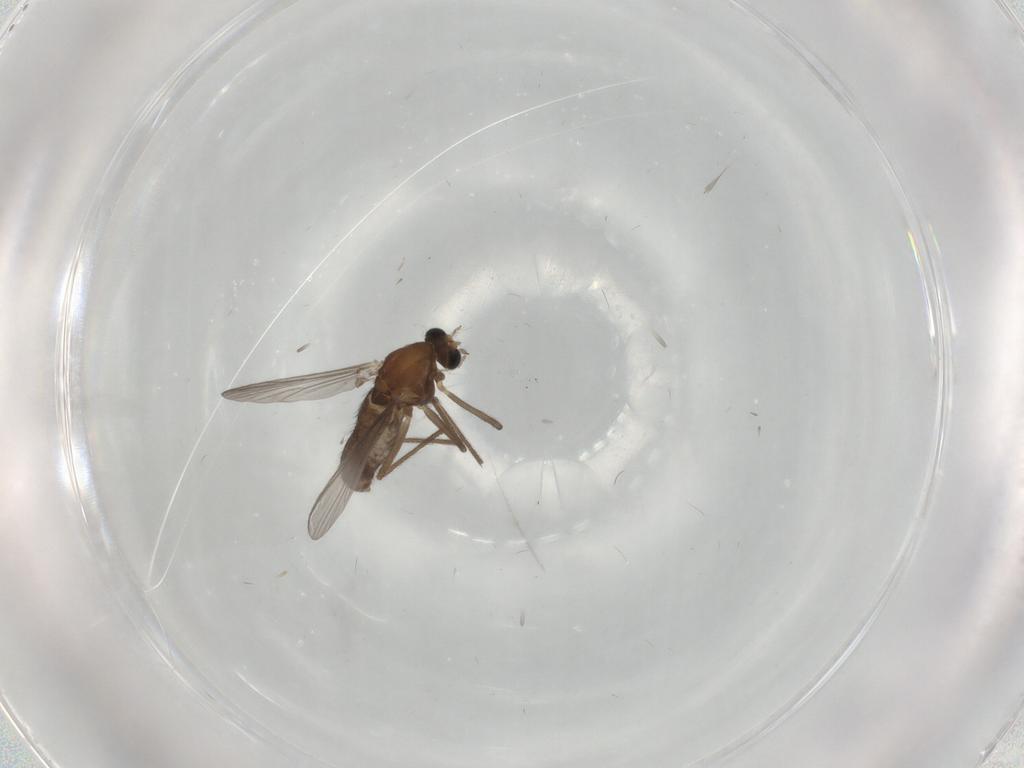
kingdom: Animalia
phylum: Arthropoda
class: Insecta
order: Diptera
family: Chironomidae
